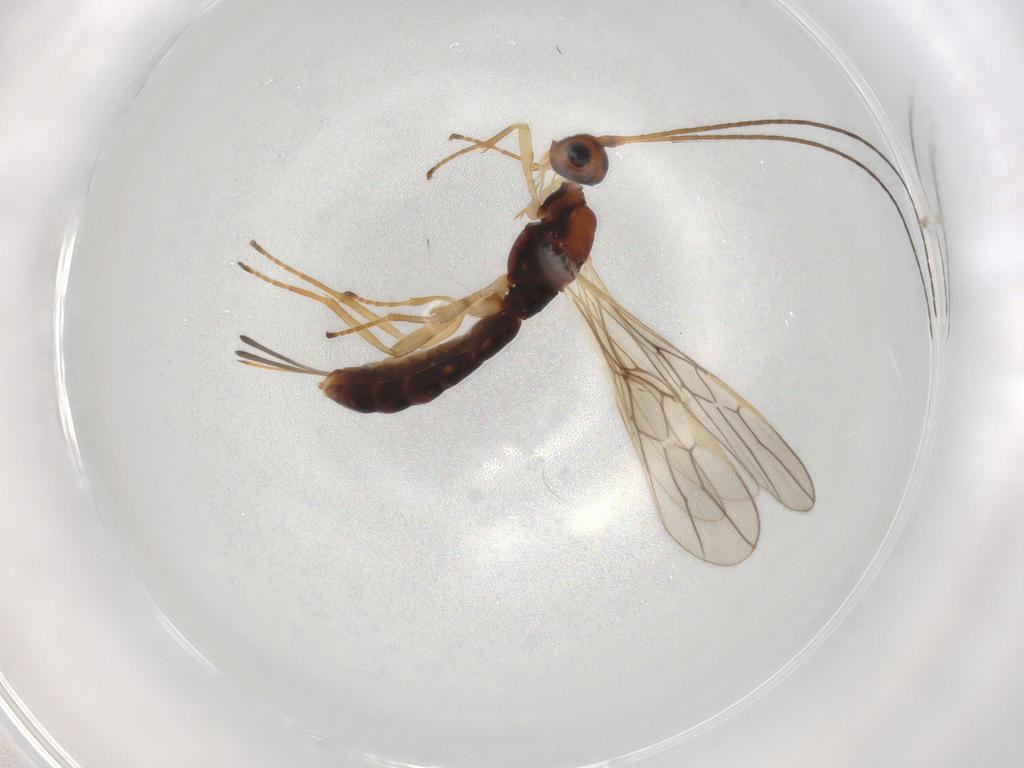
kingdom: Animalia
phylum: Arthropoda
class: Insecta
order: Hymenoptera
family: Braconidae
